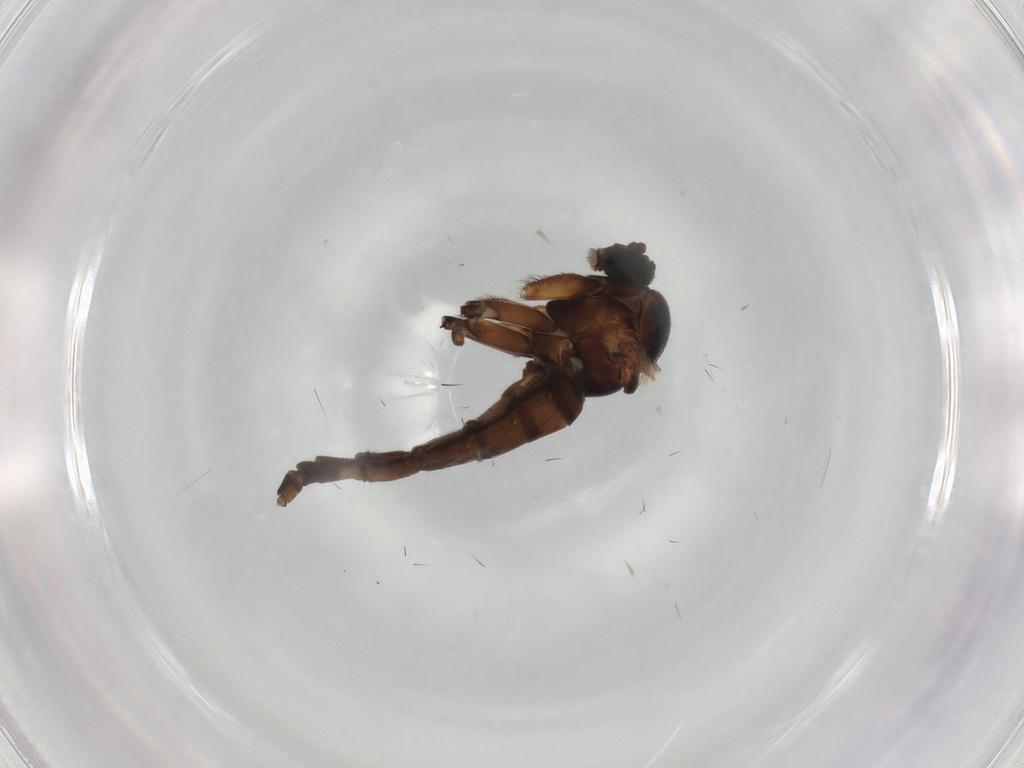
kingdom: Animalia
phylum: Arthropoda
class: Insecta
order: Diptera
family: Sciaridae
